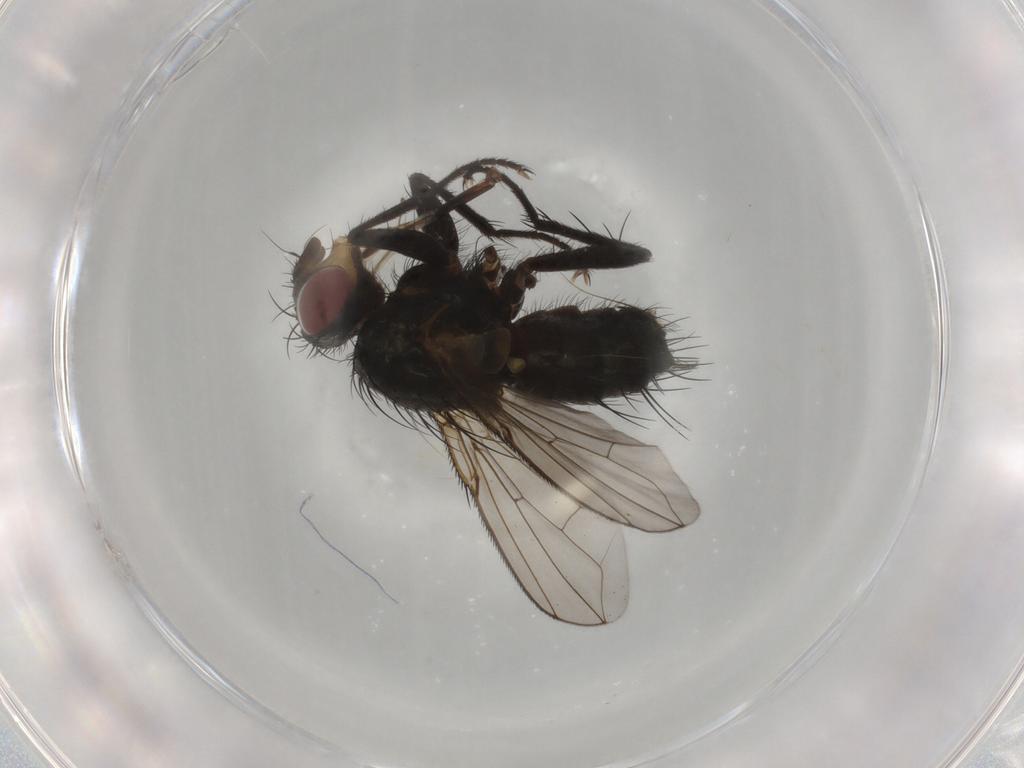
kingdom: Animalia
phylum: Arthropoda
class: Insecta
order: Diptera
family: Calliphoridae
